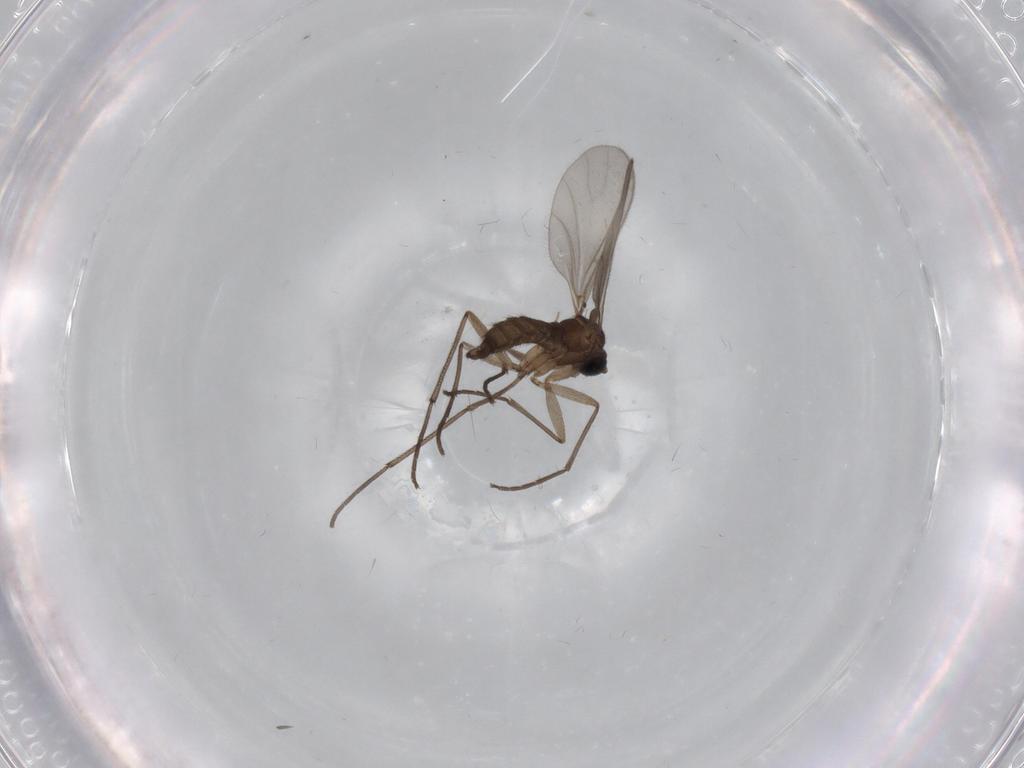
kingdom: Animalia
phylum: Arthropoda
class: Insecta
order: Diptera
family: Sciaridae
